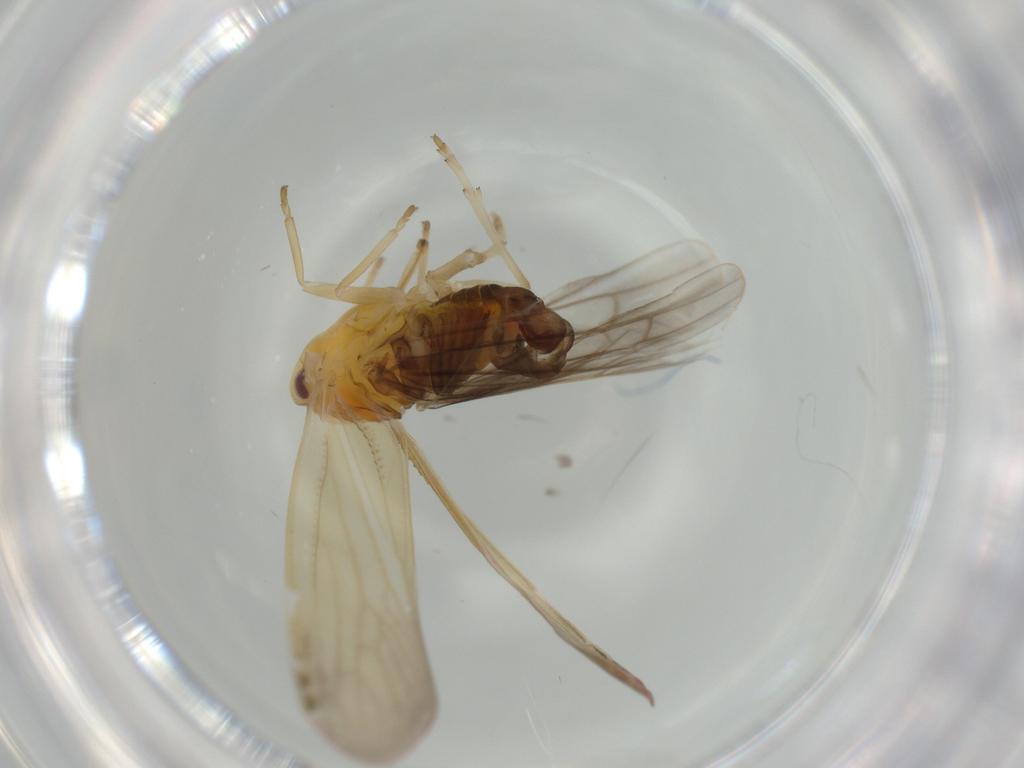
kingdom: Animalia
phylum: Arthropoda
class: Insecta
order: Hemiptera
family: Derbidae
